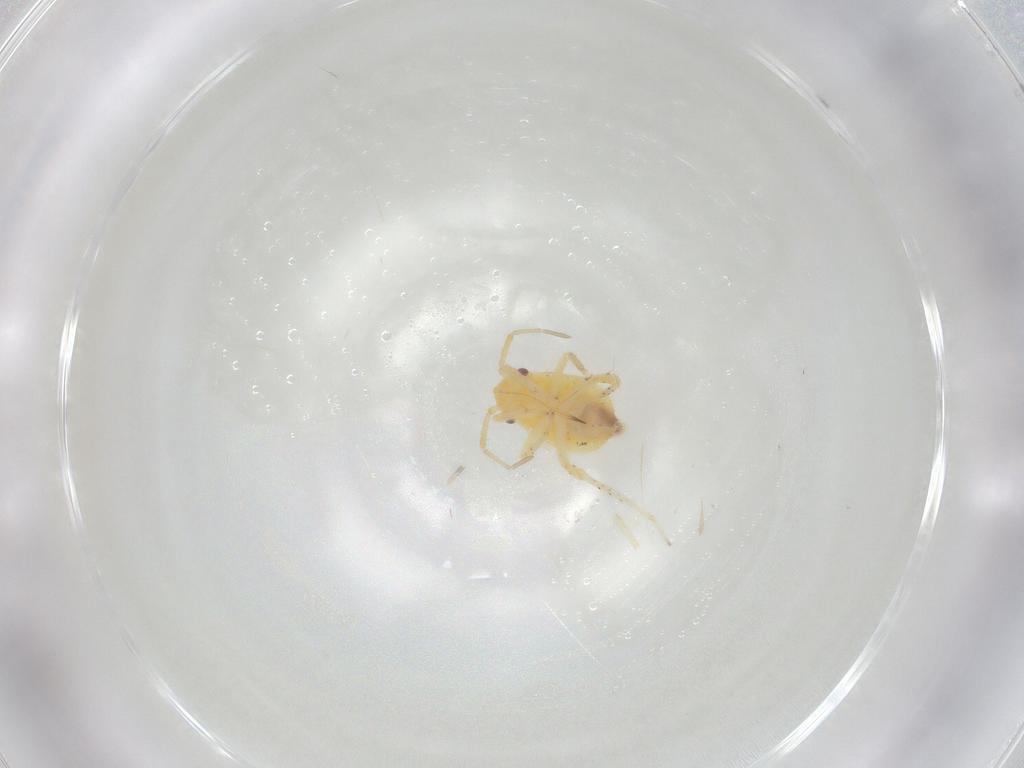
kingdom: Animalia
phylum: Arthropoda
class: Insecta
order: Hemiptera
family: Miridae
